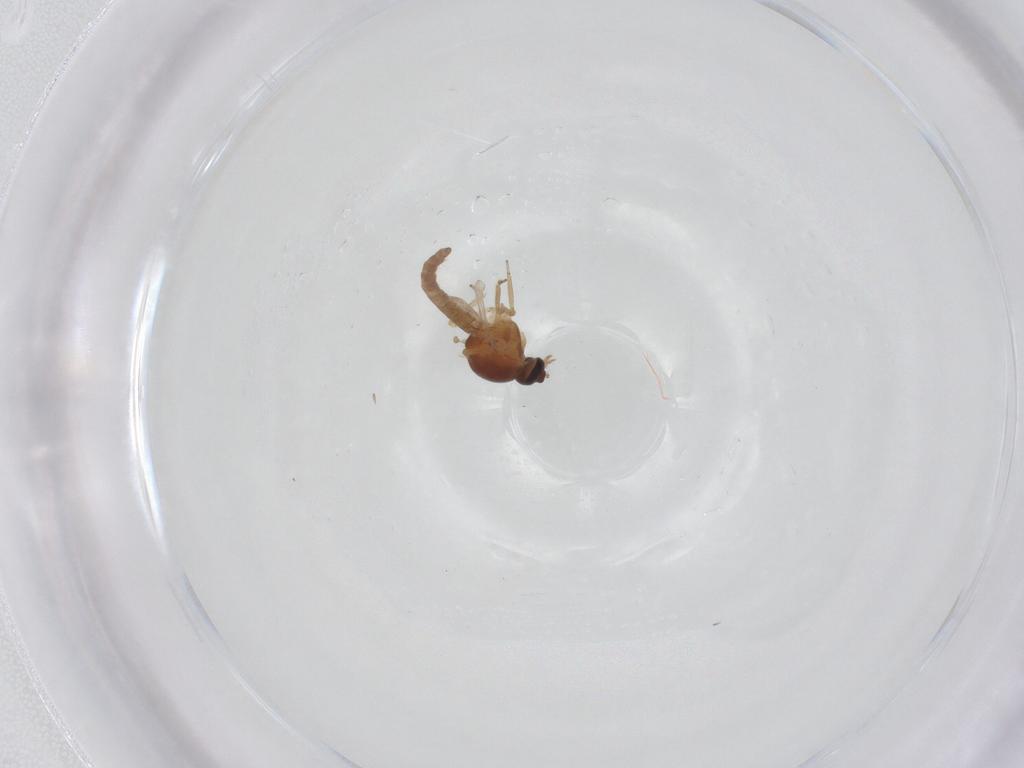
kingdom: Animalia
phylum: Arthropoda
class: Insecta
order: Diptera
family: Ceratopogonidae
